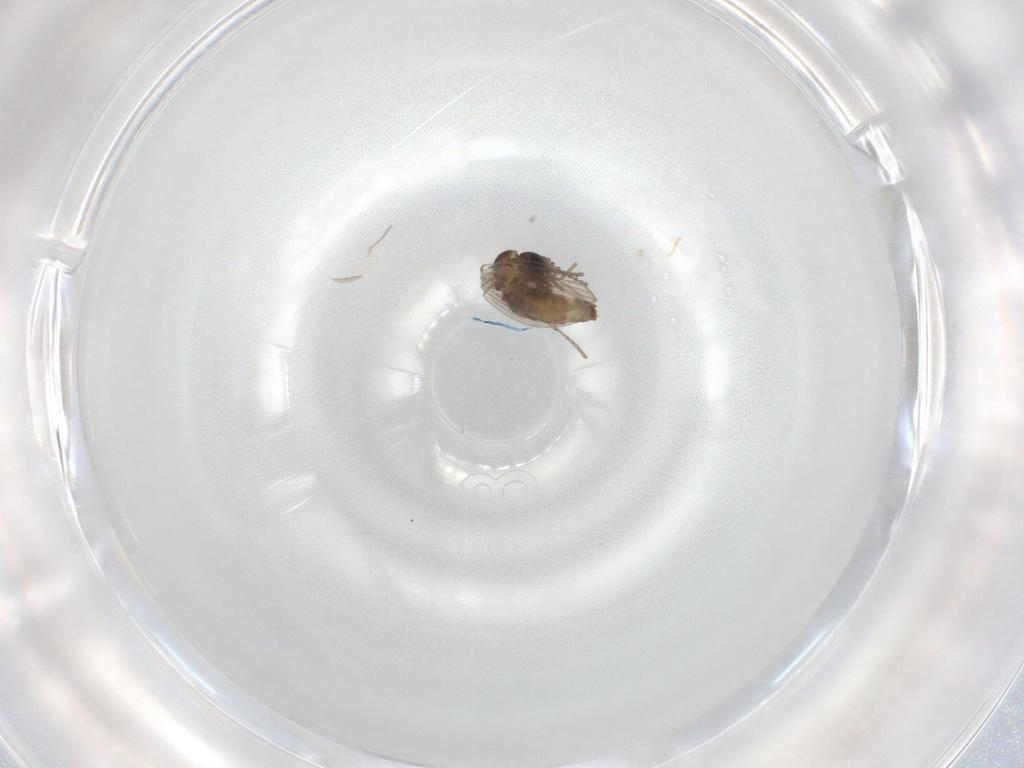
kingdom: Animalia
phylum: Arthropoda
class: Insecta
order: Diptera
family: Psychodidae
